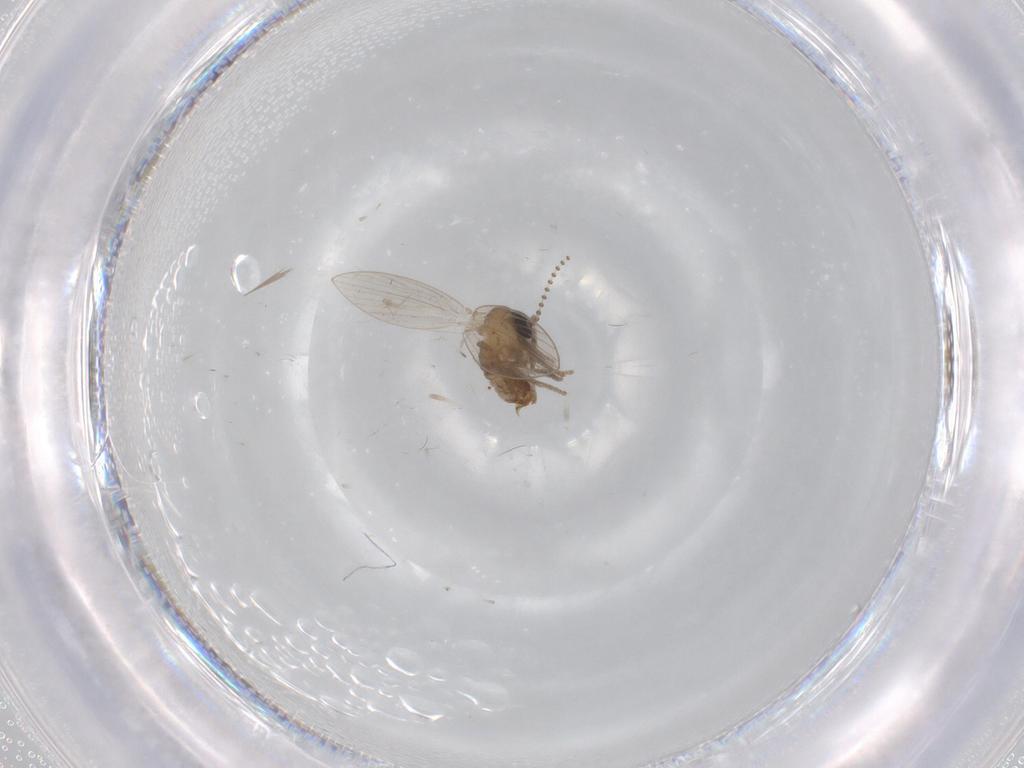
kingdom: Animalia
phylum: Arthropoda
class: Insecta
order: Diptera
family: Psychodidae
